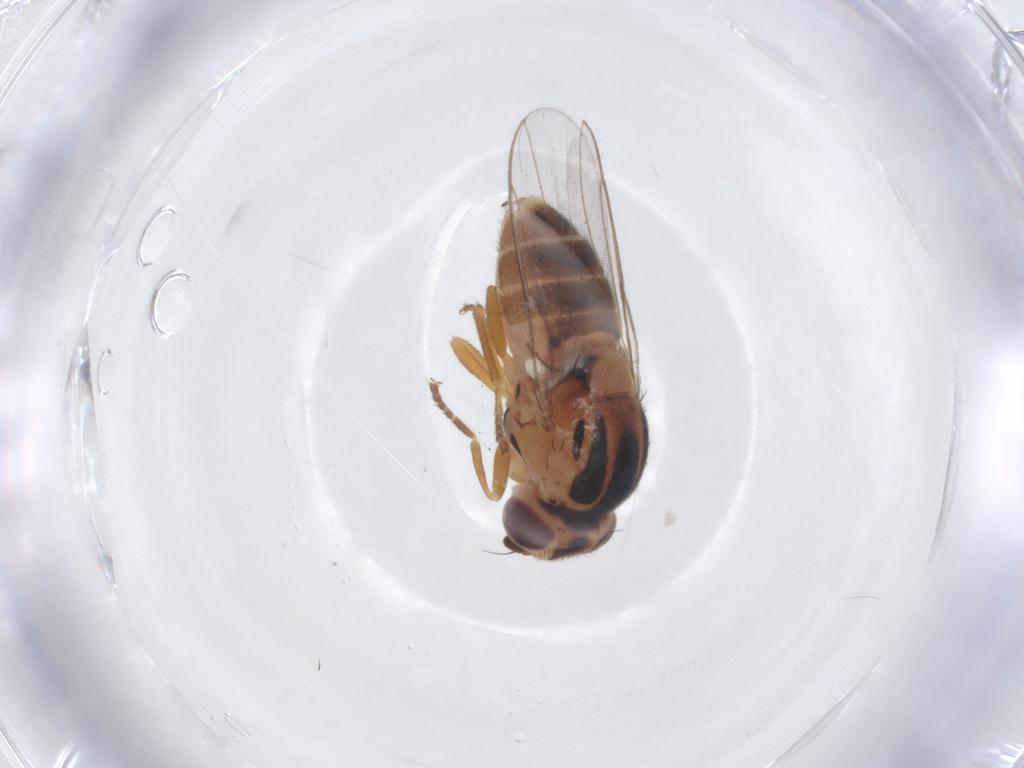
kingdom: Animalia
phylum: Arthropoda
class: Insecta
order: Diptera
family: Chloropidae
